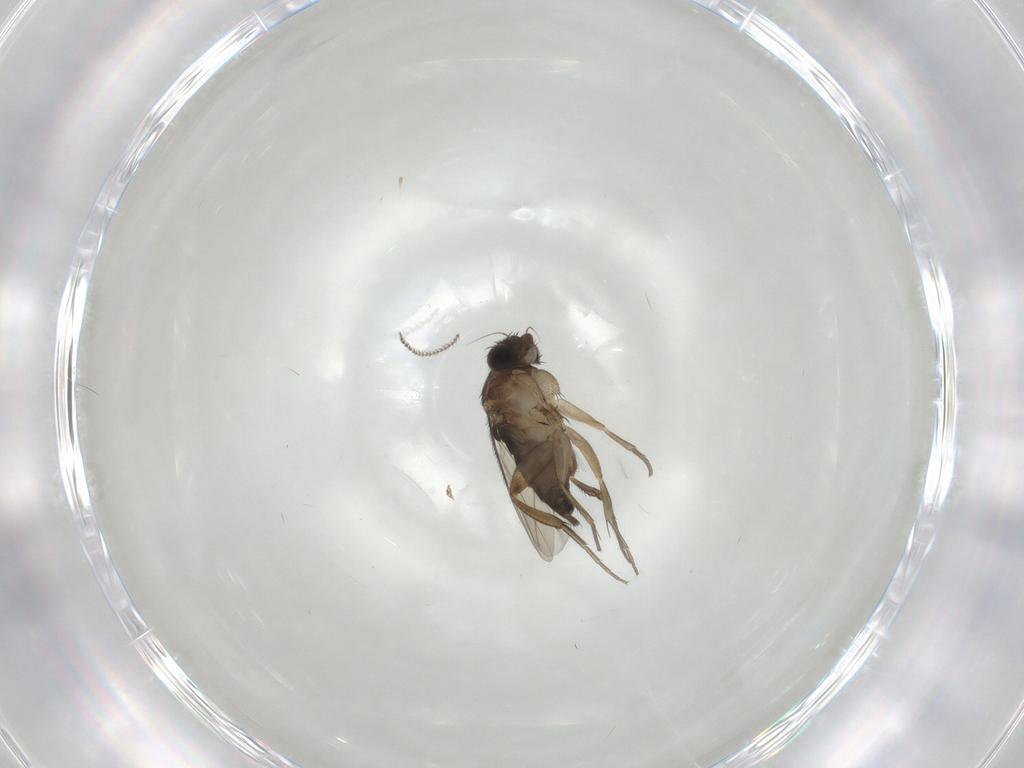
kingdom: Animalia
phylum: Arthropoda
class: Insecta
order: Diptera
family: Phoridae
